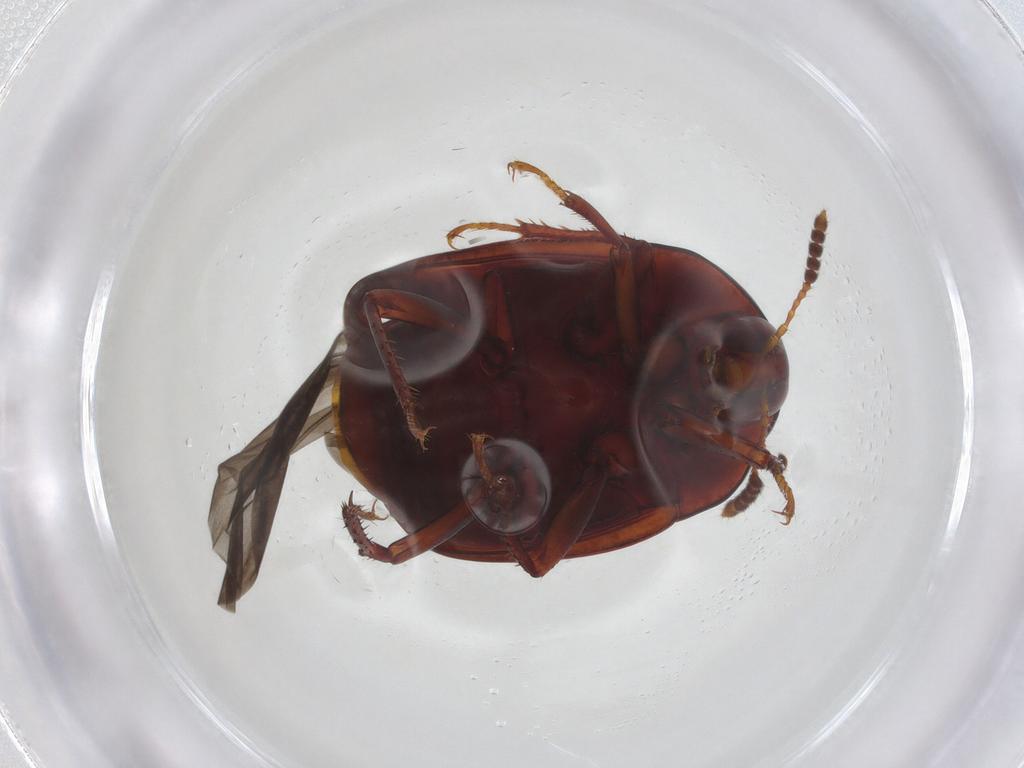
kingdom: Animalia
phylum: Arthropoda
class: Insecta
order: Coleoptera
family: Staphylinidae
